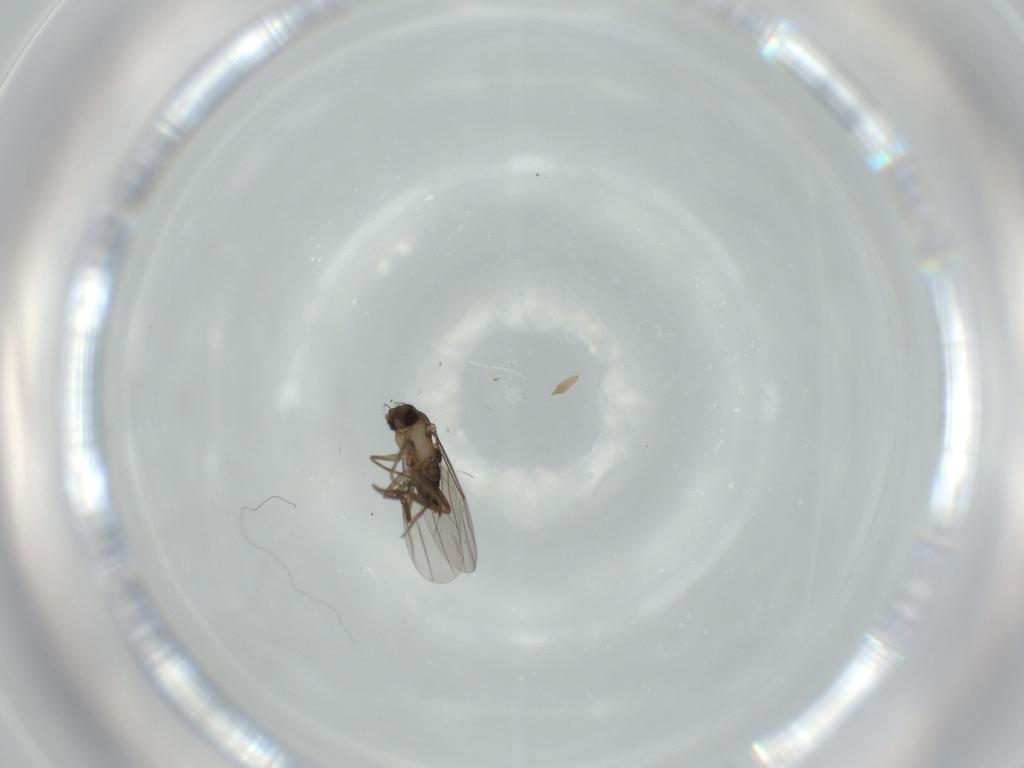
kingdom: Animalia
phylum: Arthropoda
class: Insecta
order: Diptera
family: Phoridae
